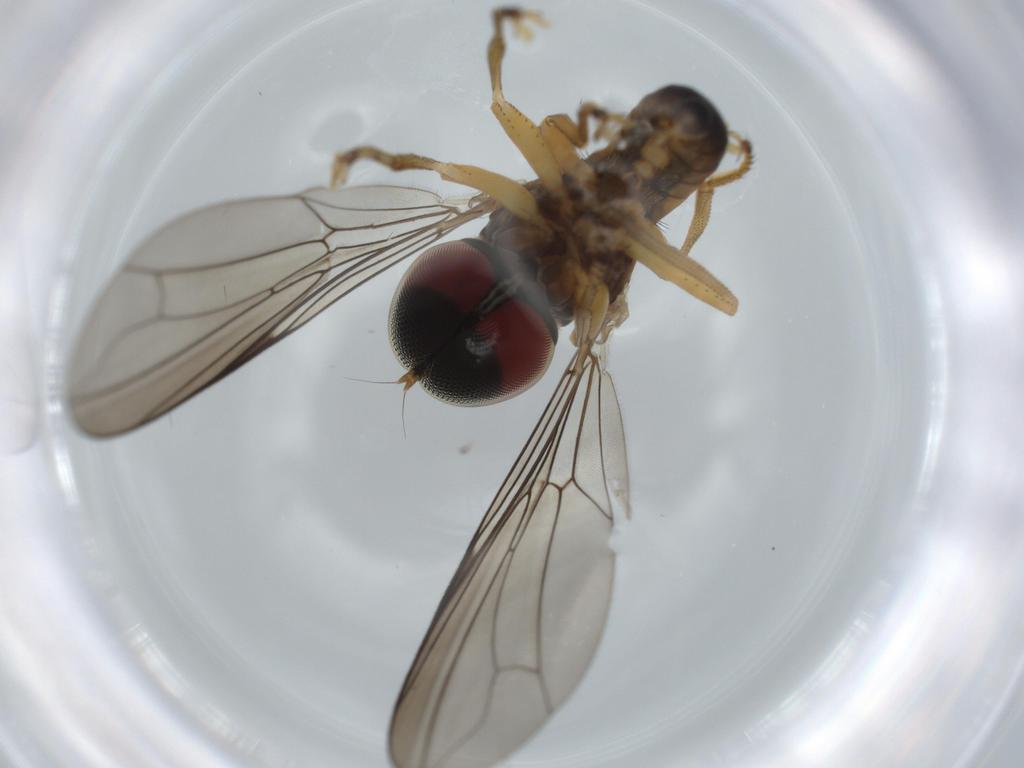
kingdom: Animalia
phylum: Arthropoda
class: Insecta
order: Diptera
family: Pipunculidae
